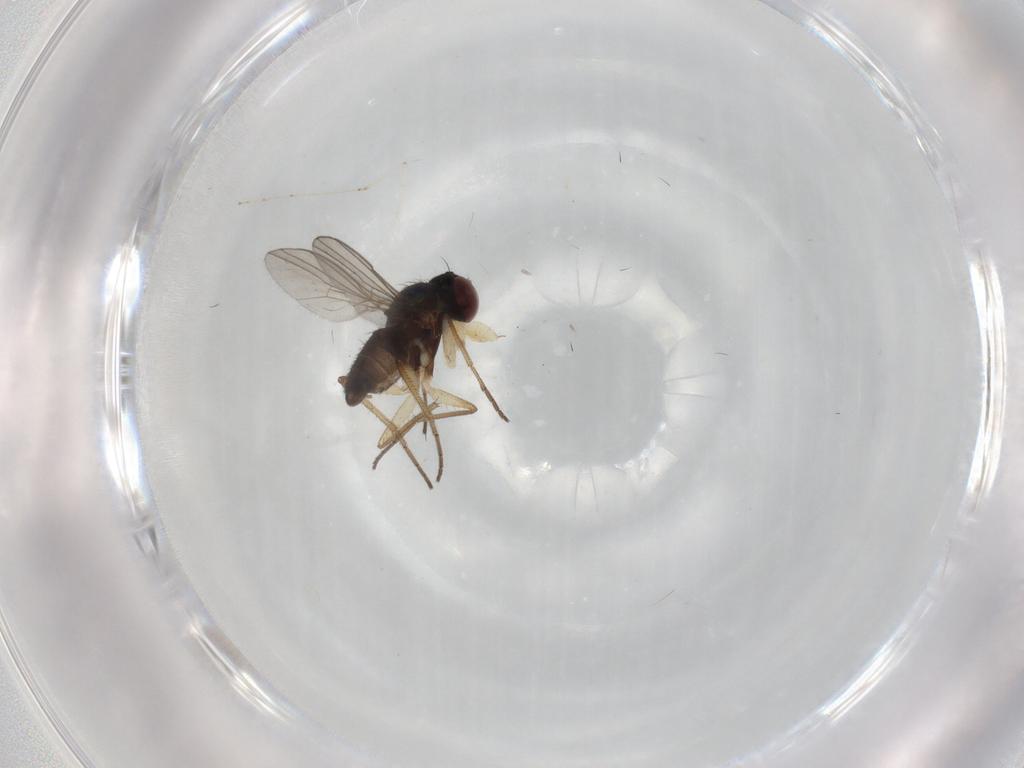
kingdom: Animalia
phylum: Arthropoda
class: Insecta
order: Diptera
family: Dolichopodidae
